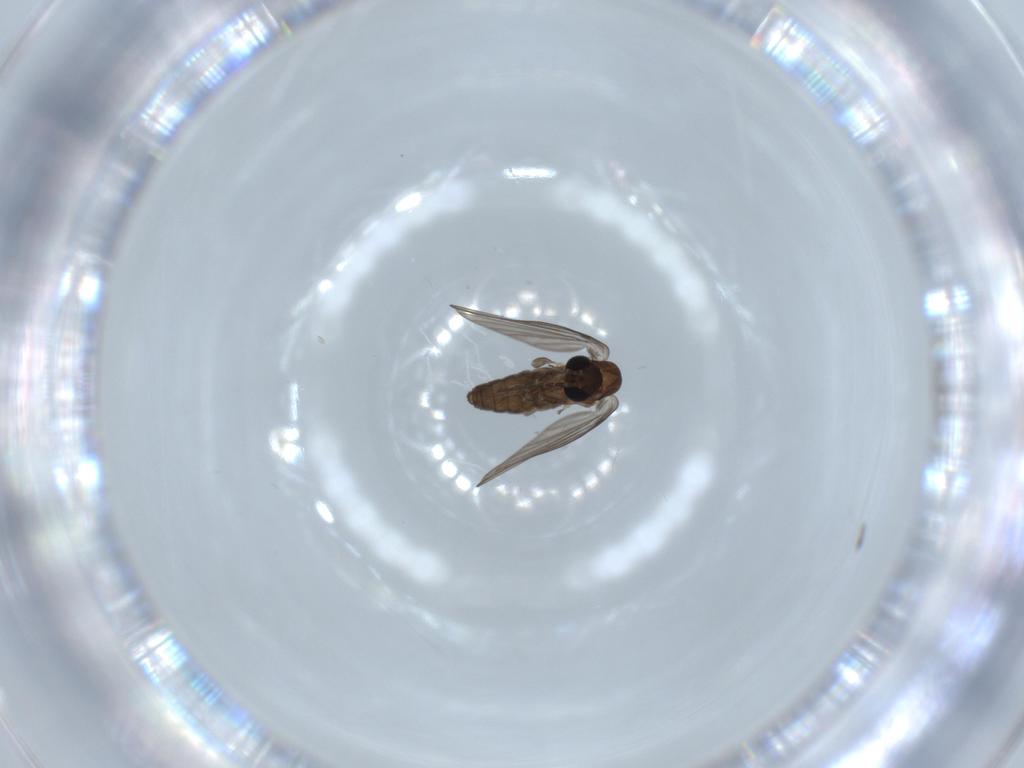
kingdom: Animalia
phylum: Arthropoda
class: Insecta
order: Diptera
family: Psychodidae
